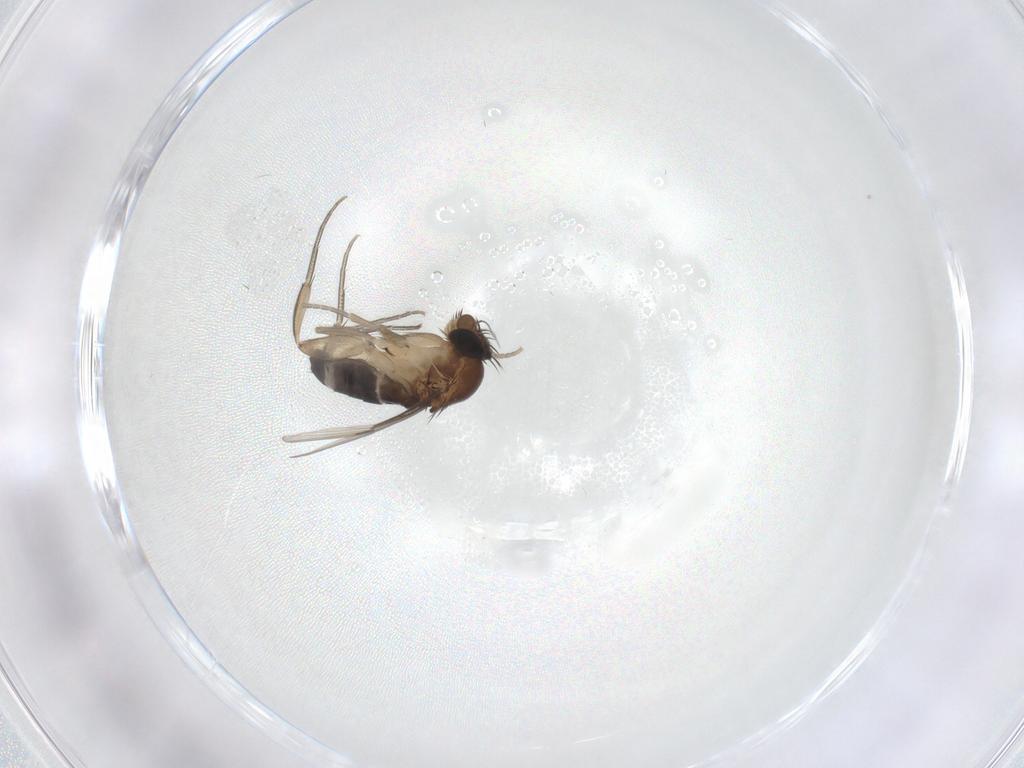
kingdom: Animalia
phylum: Arthropoda
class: Insecta
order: Diptera
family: Phoridae
